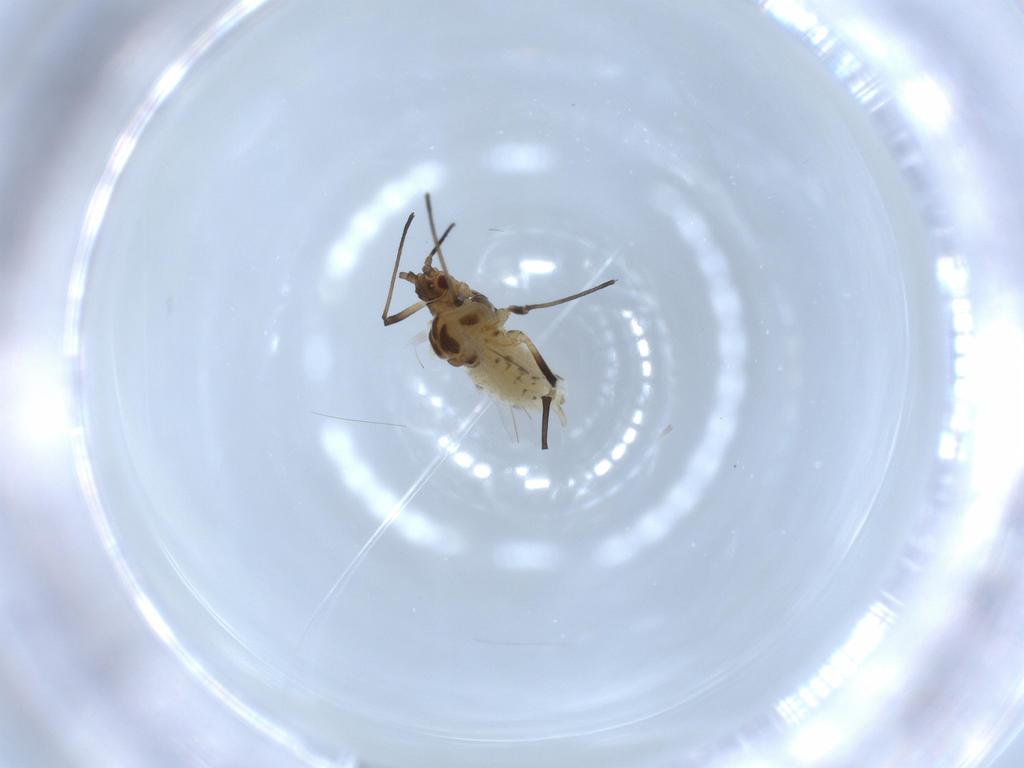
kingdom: Animalia
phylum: Arthropoda
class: Insecta
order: Hemiptera
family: Aphididae
